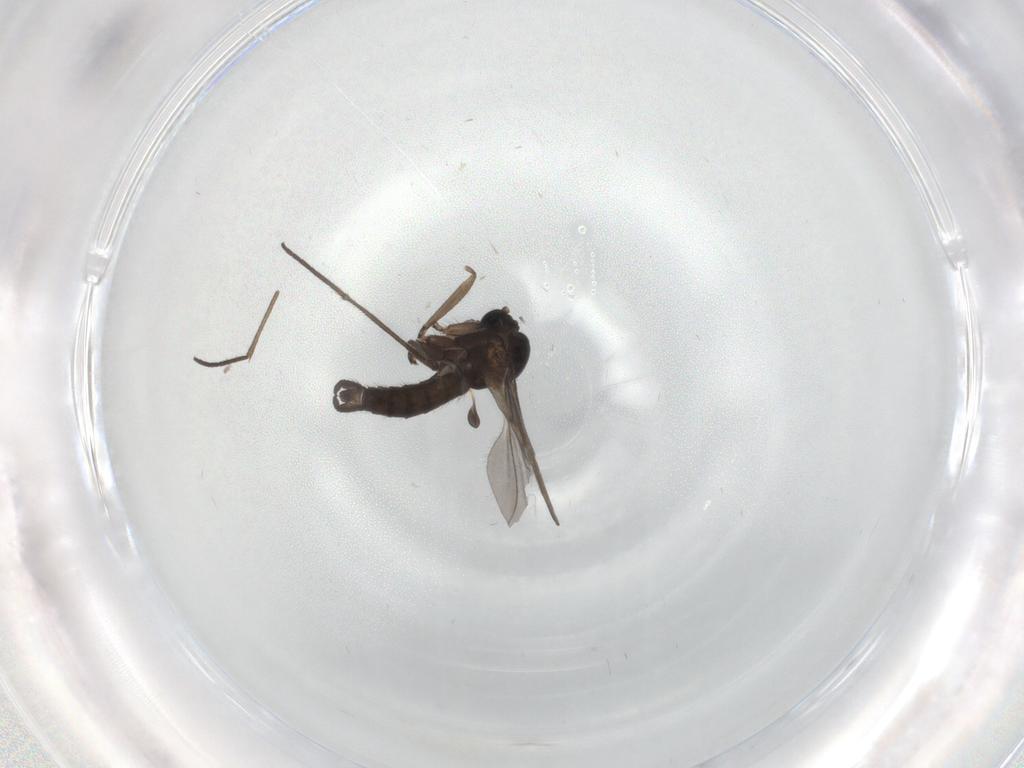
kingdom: Animalia
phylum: Arthropoda
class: Insecta
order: Diptera
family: Sciaridae
